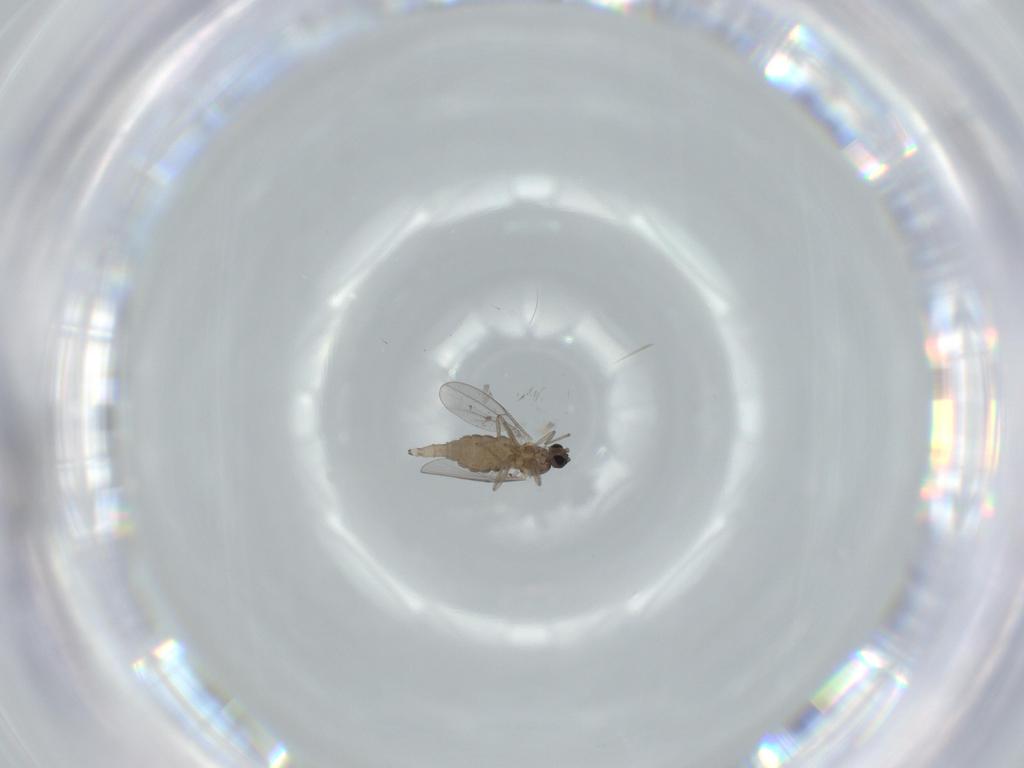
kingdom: Animalia
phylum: Arthropoda
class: Insecta
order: Diptera
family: Cecidomyiidae
